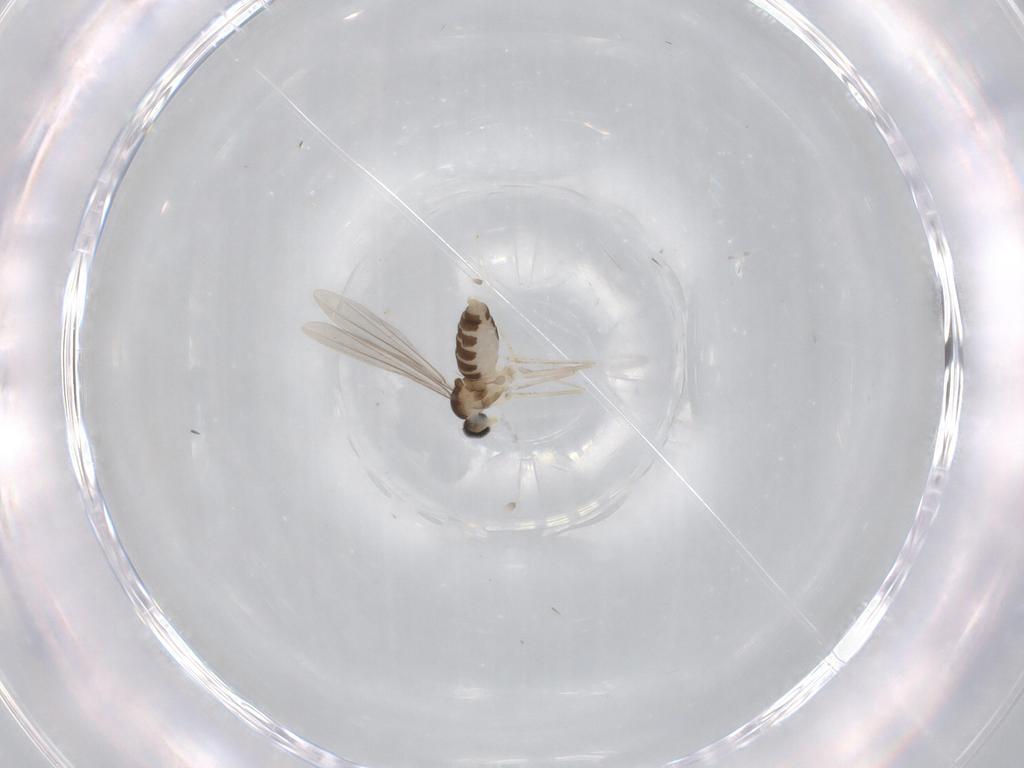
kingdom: Animalia
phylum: Arthropoda
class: Insecta
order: Diptera
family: Cecidomyiidae
